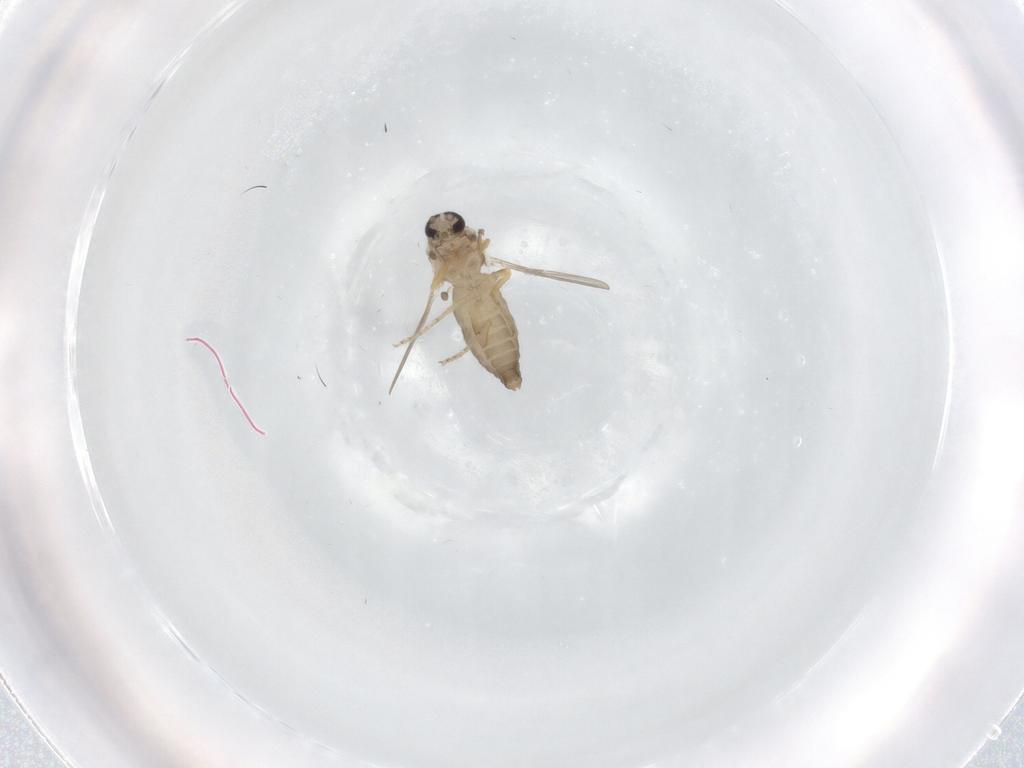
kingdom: Animalia
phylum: Arthropoda
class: Insecta
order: Diptera
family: Ceratopogonidae
